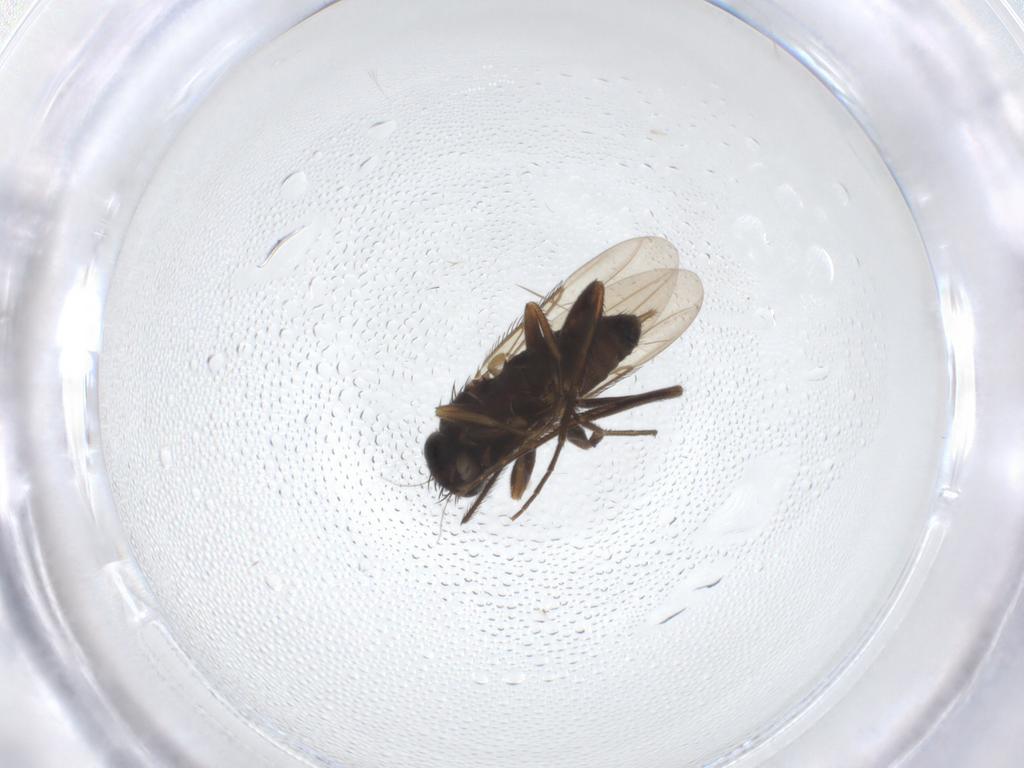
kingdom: Animalia
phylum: Arthropoda
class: Insecta
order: Diptera
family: Phoridae
